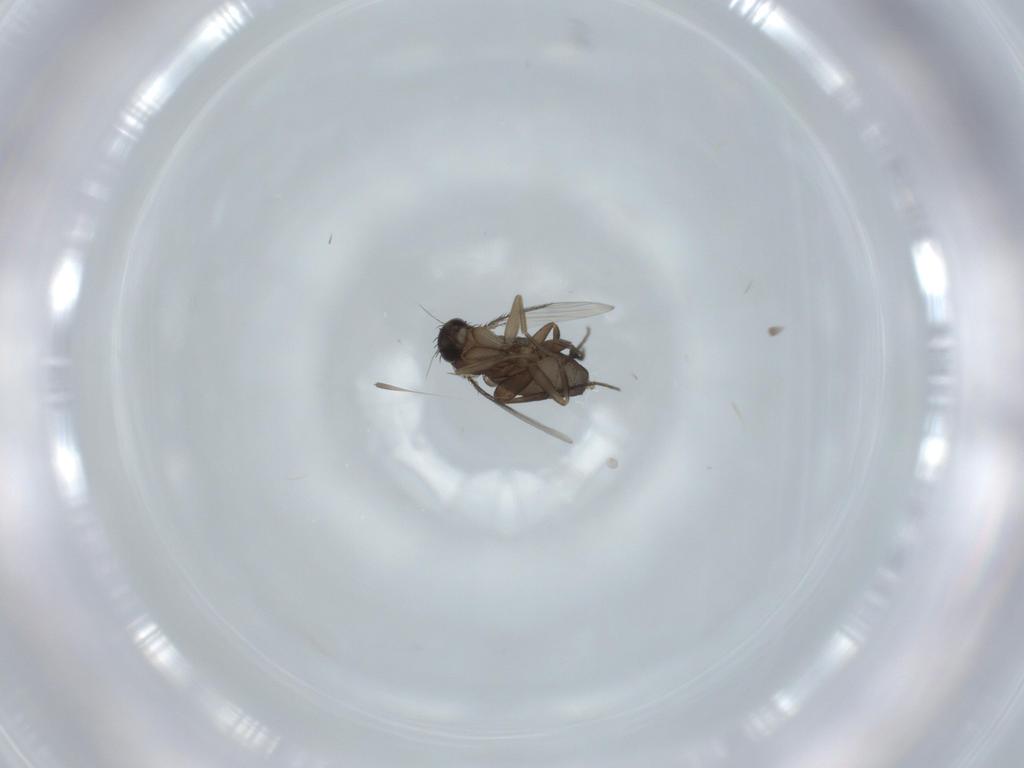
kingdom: Animalia
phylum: Arthropoda
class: Insecta
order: Diptera
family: Phoridae
